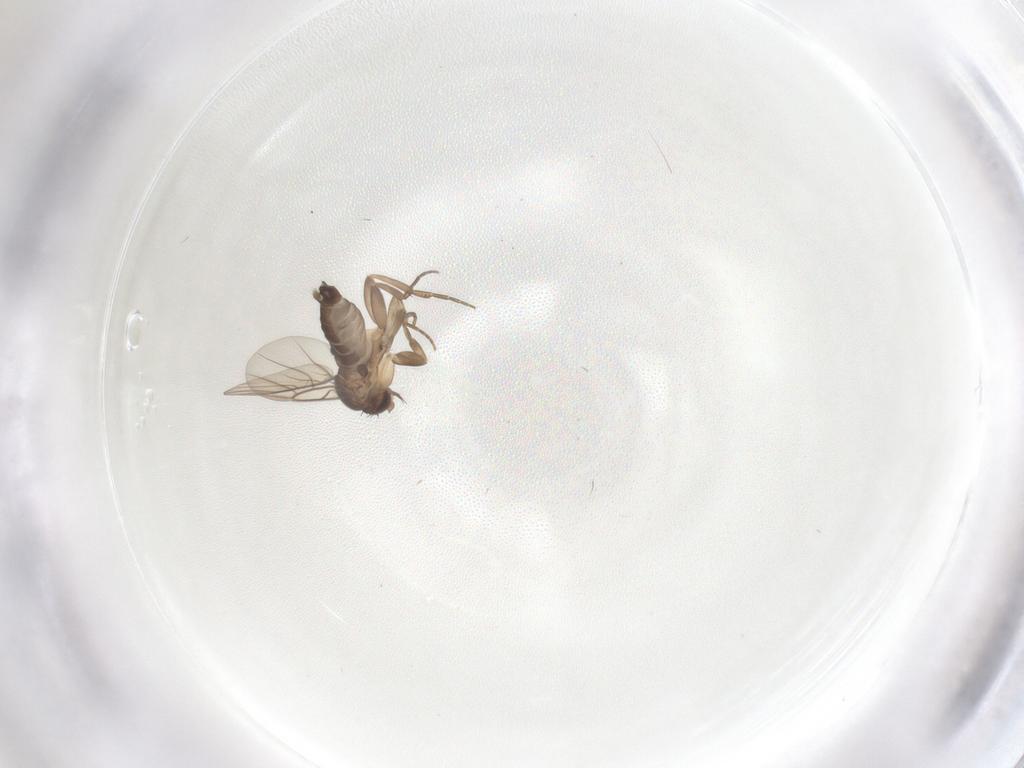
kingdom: Animalia
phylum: Arthropoda
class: Insecta
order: Diptera
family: Phoridae
